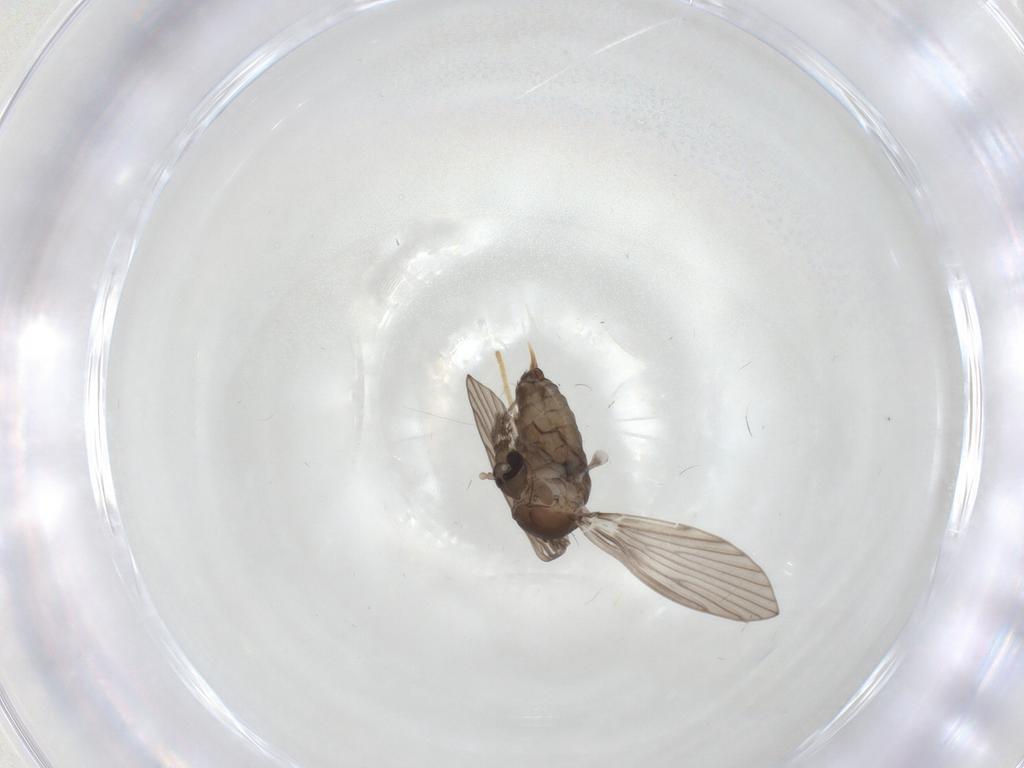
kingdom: Animalia
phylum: Arthropoda
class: Insecta
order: Diptera
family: Psychodidae
